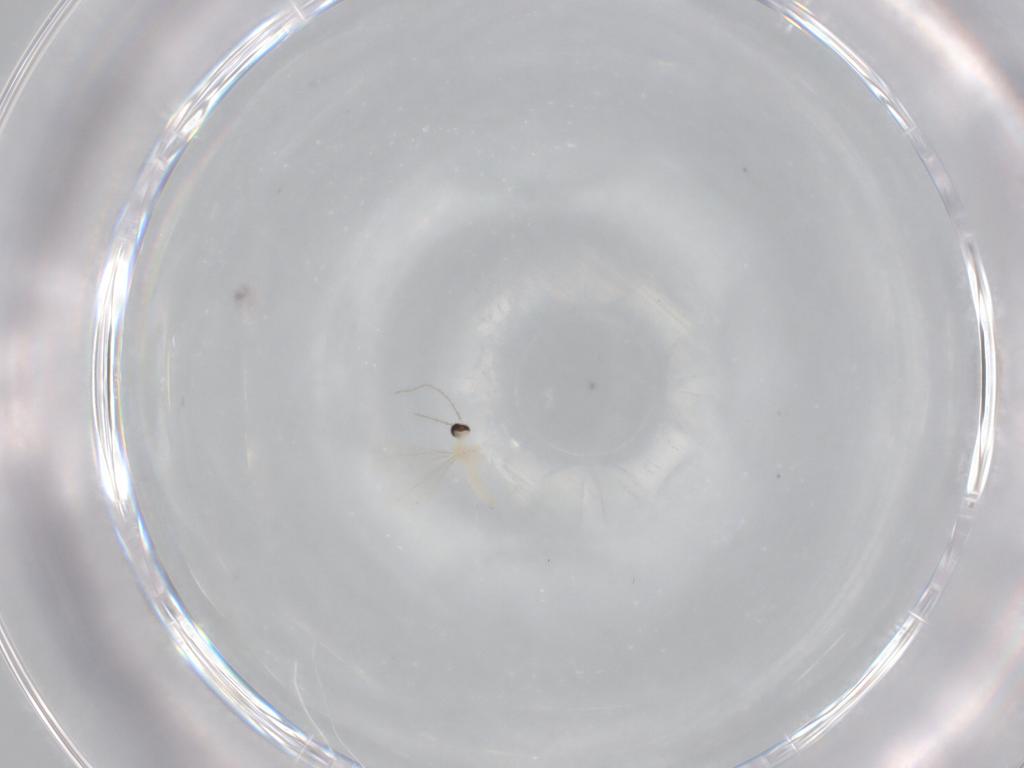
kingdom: Animalia
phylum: Arthropoda
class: Insecta
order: Diptera
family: Cecidomyiidae
